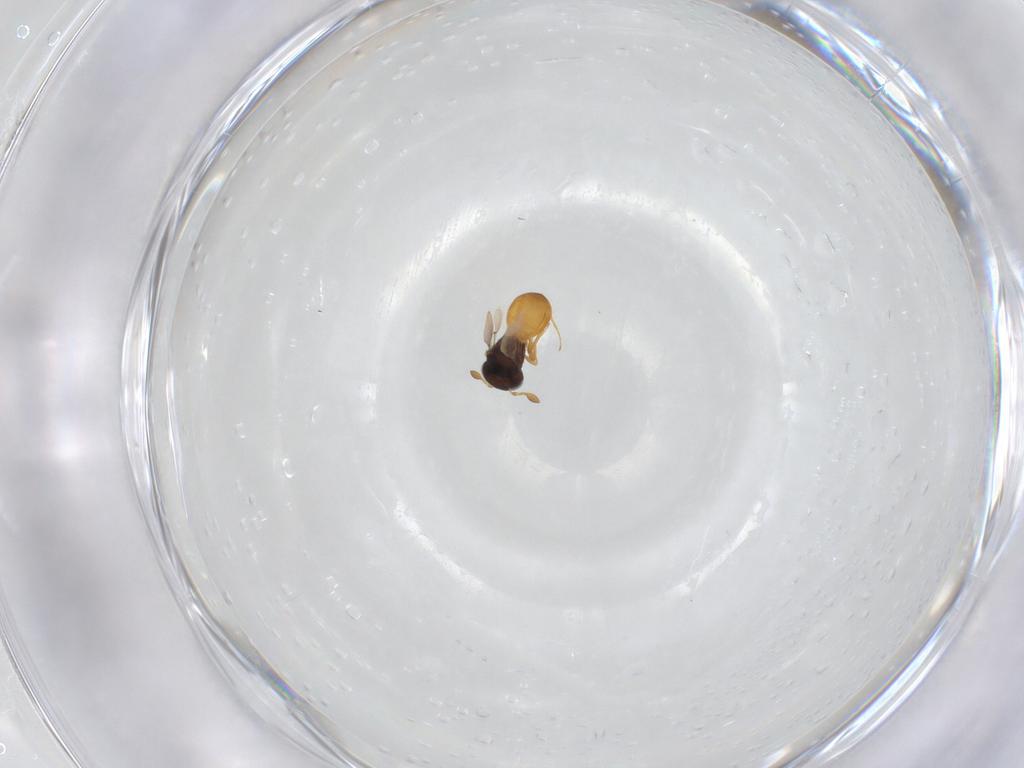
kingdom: Animalia
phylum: Arthropoda
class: Insecta
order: Hymenoptera
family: Scelionidae
